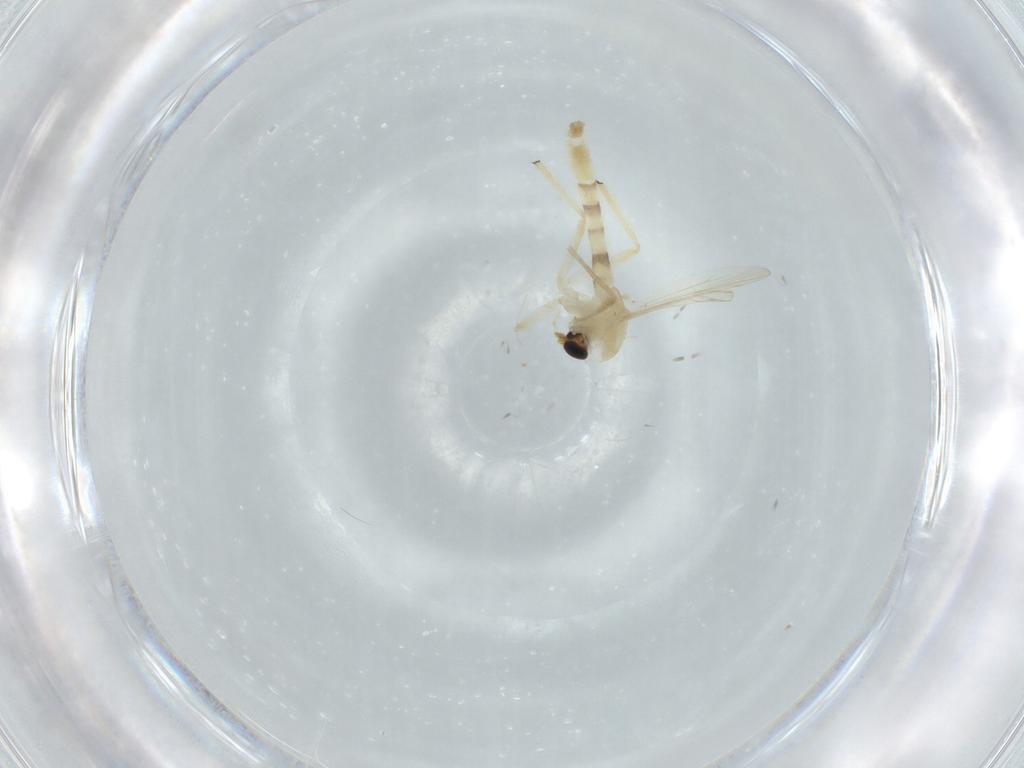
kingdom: Animalia
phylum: Arthropoda
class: Insecta
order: Diptera
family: Chironomidae
